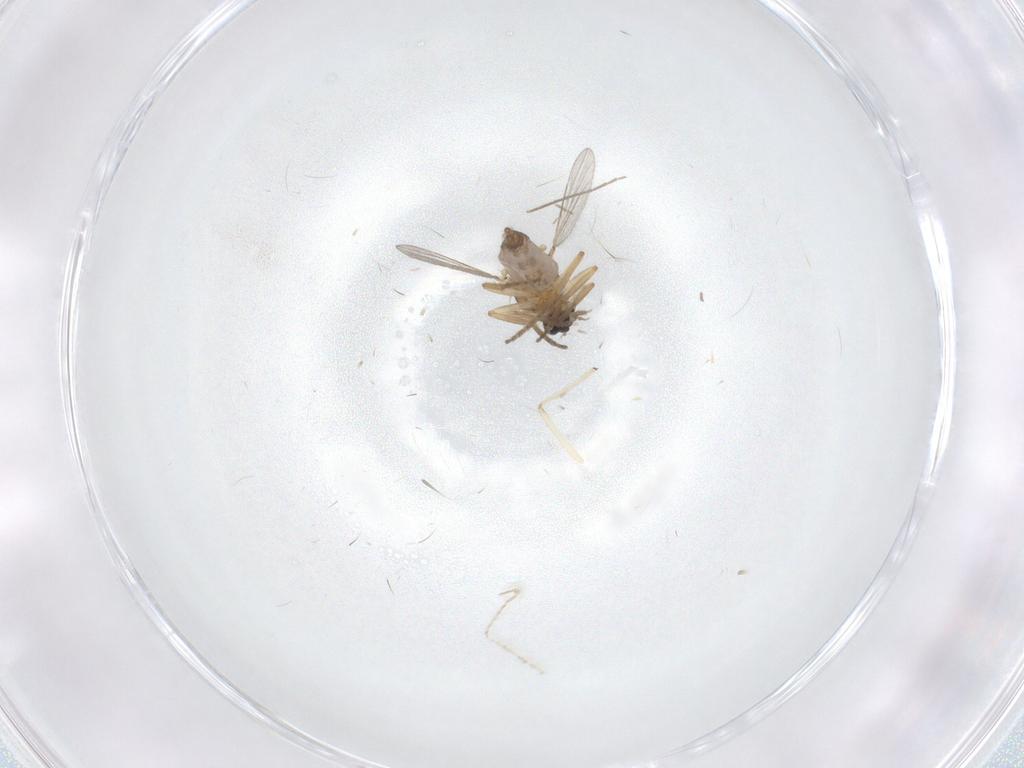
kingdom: Animalia
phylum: Arthropoda
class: Insecta
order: Diptera
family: Ceratopogonidae
